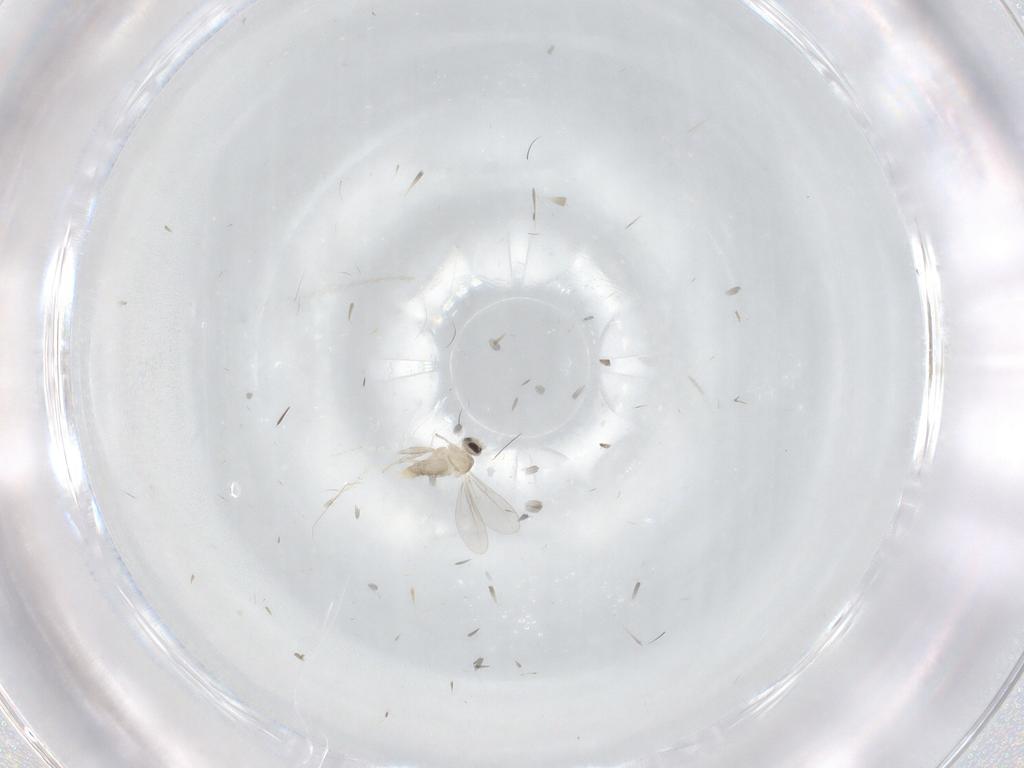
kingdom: Animalia
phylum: Arthropoda
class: Insecta
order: Diptera
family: Cecidomyiidae
